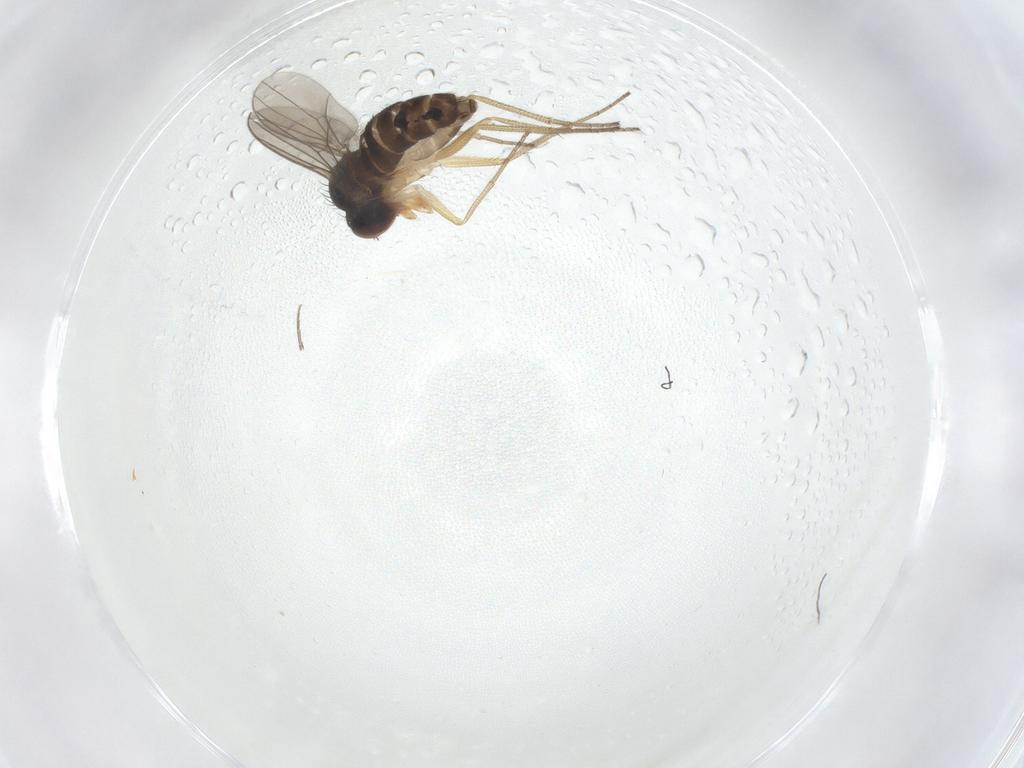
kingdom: Animalia
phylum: Arthropoda
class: Insecta
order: Diptera
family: Dolichopodidae
